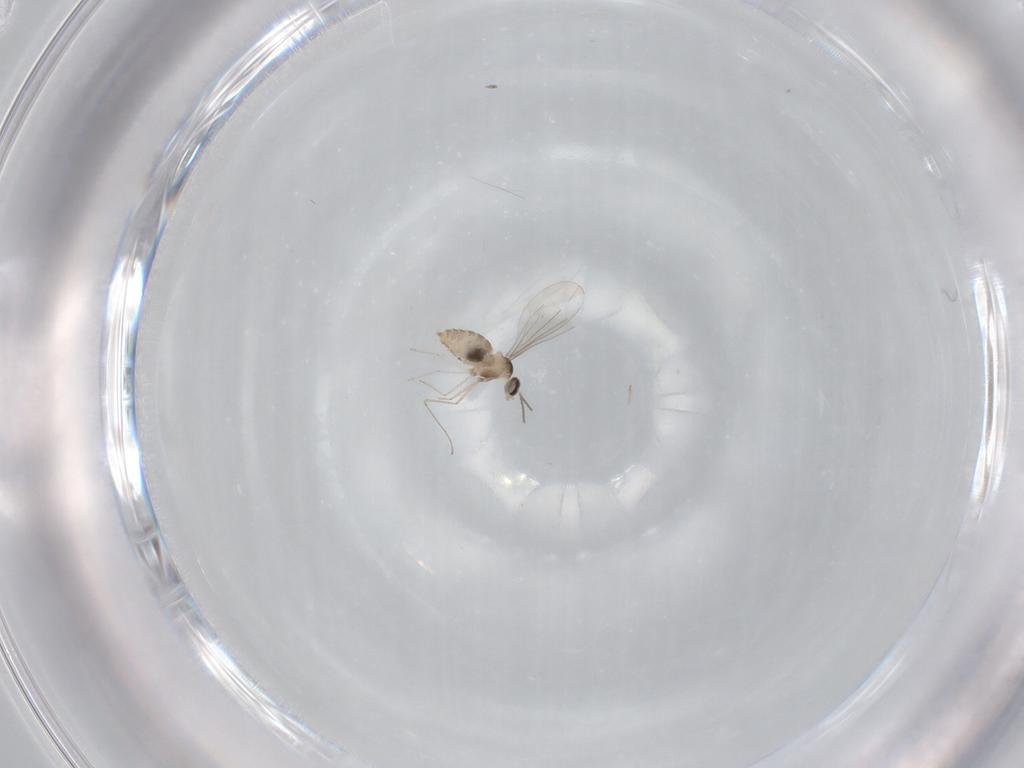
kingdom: Animalia
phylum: Arthropoda
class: Insecta
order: Diptera
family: Cecidomyiidae
